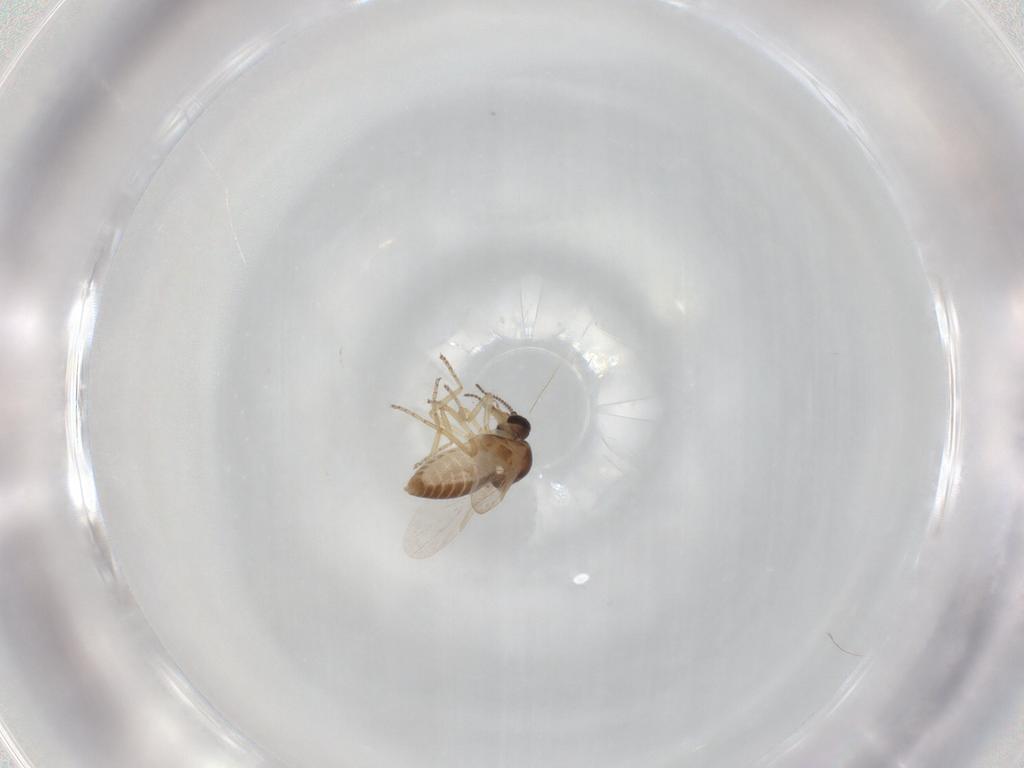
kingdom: Animalia
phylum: Arthropoda
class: Insecta
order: Diptera
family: Ceratopogonidae
